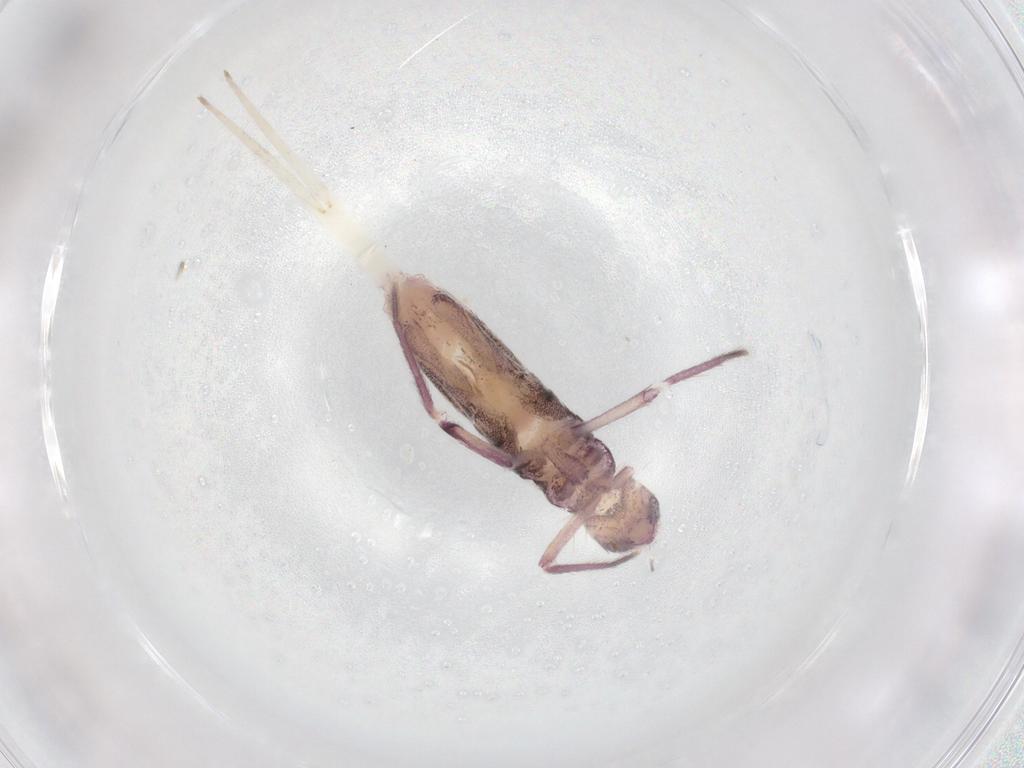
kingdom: Animalia
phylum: Arthropoda
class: Collembola
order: Entomobryomorpha
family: Entomobryidae
